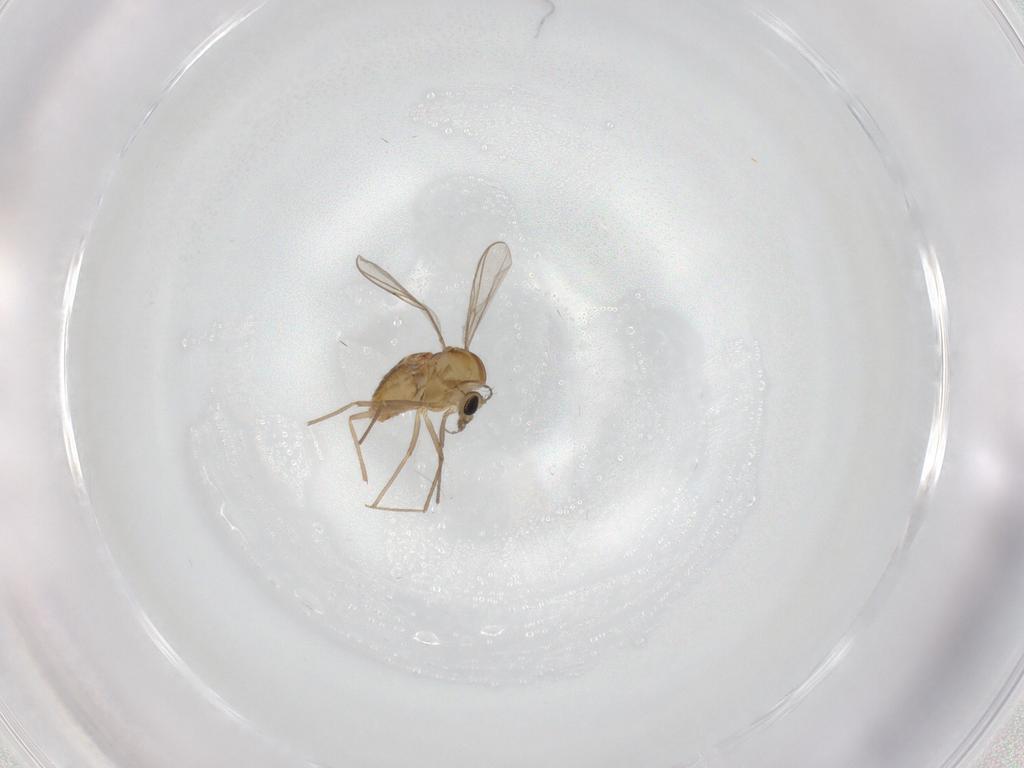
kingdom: Animalia
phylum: Arthropoda
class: Insecta
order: Diptera
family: Chironomidae
